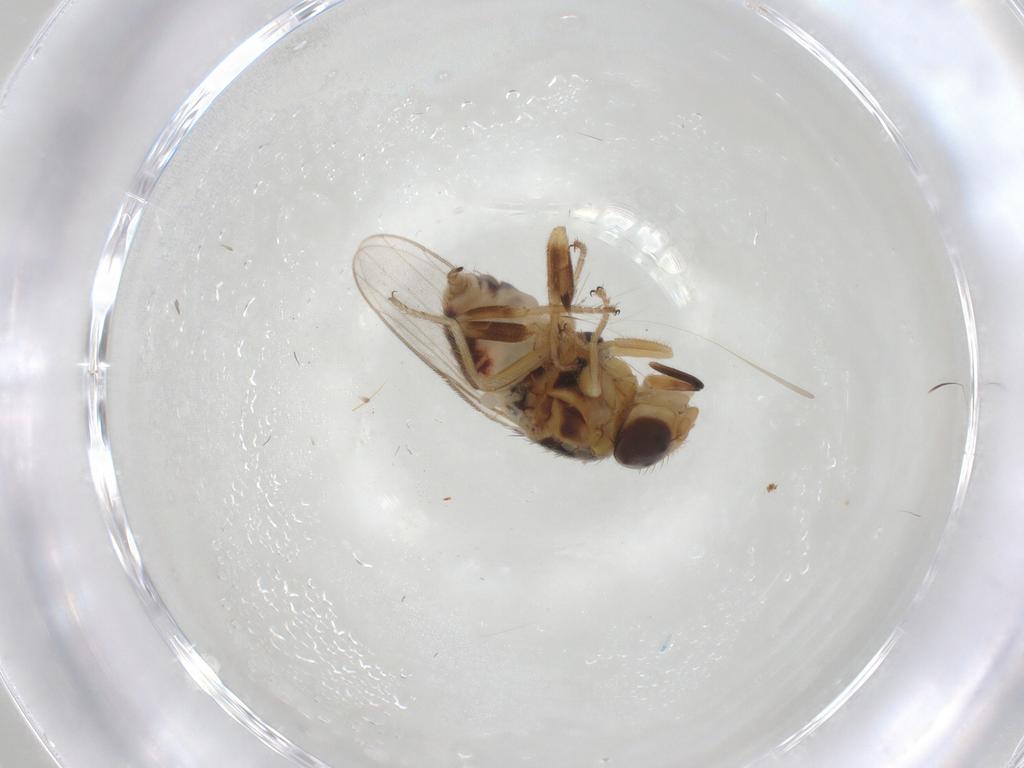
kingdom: Animalia
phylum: Arthropoda
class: Insecta
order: Diptera
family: Chloropidae
